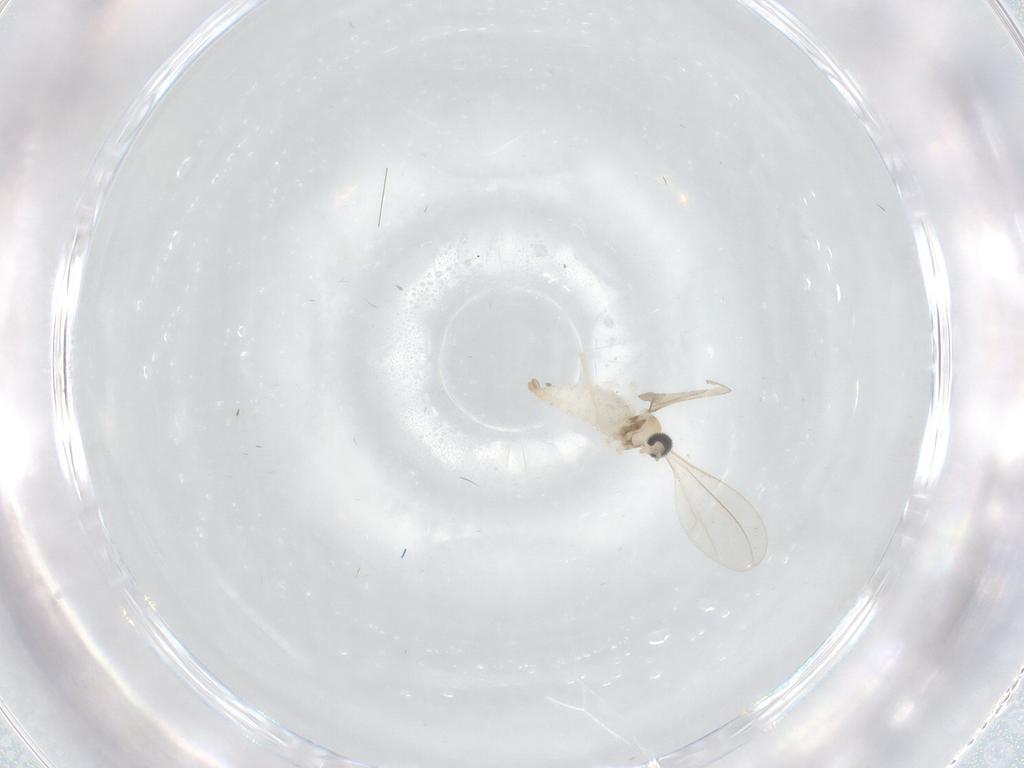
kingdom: Animalia
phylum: Arthropoda
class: Insecta
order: Diptera
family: Cecidomyiidae
